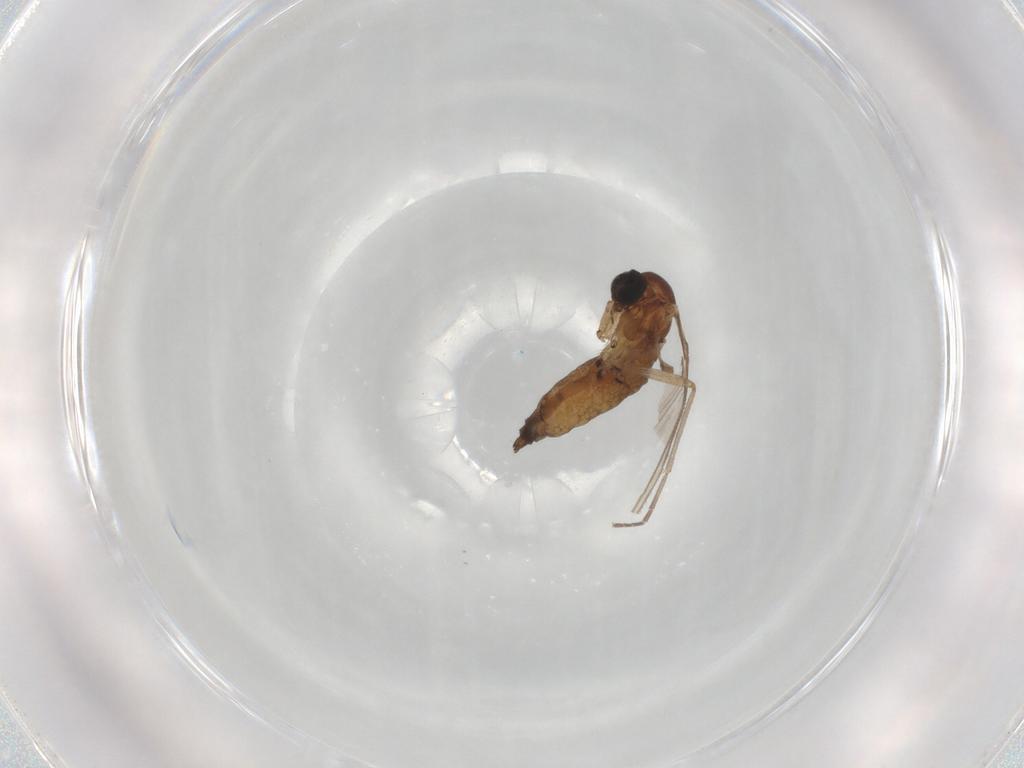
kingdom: Animalia
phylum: Arthropoda
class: Insecta
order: Diptera
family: Sciaridae
